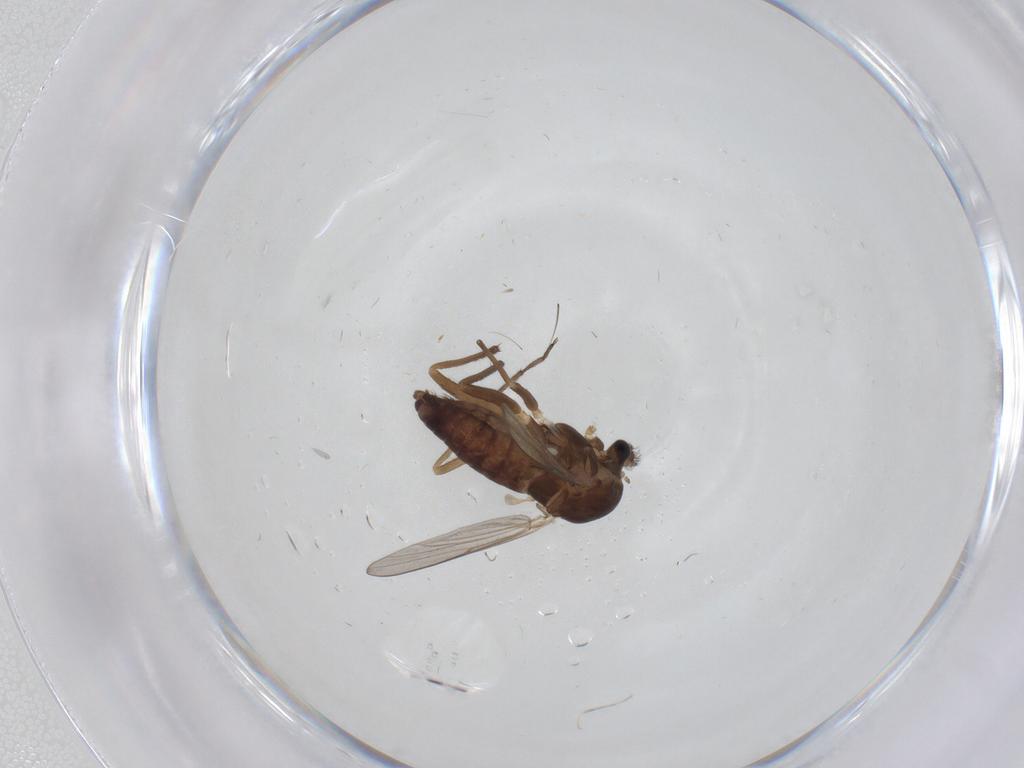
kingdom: Animalia
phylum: Arthropoda
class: Insecta
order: Diptera
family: Chironomidae
